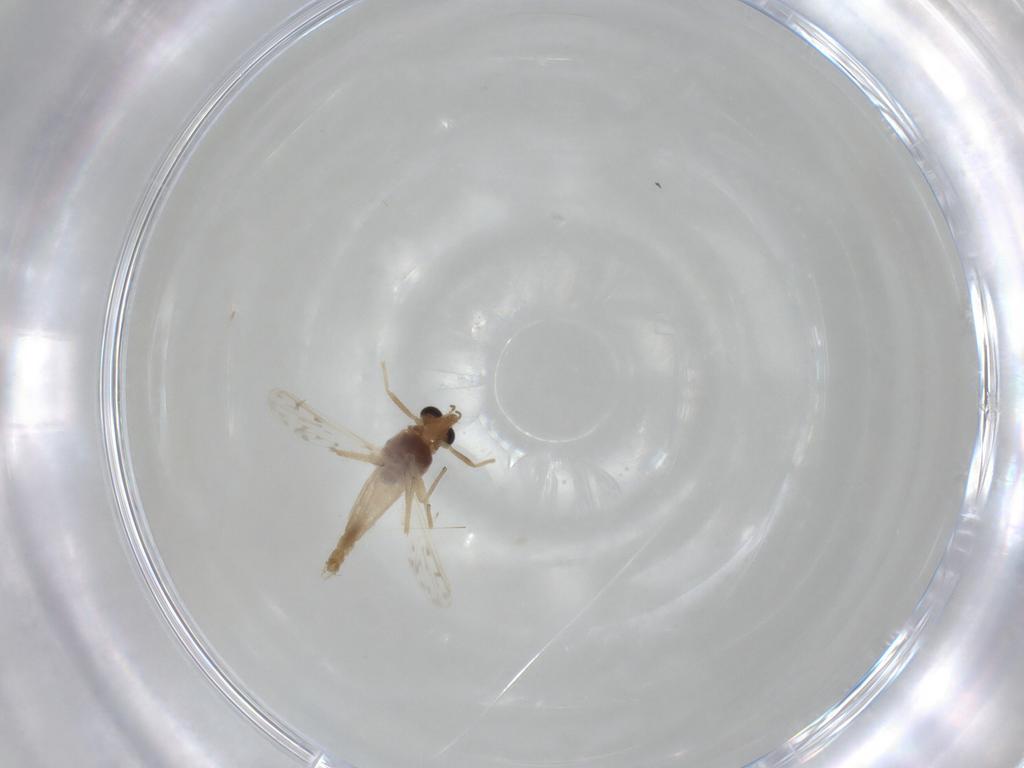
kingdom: Animalia
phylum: Arthropoda
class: Insecta
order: Diptera
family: Chironomidae
